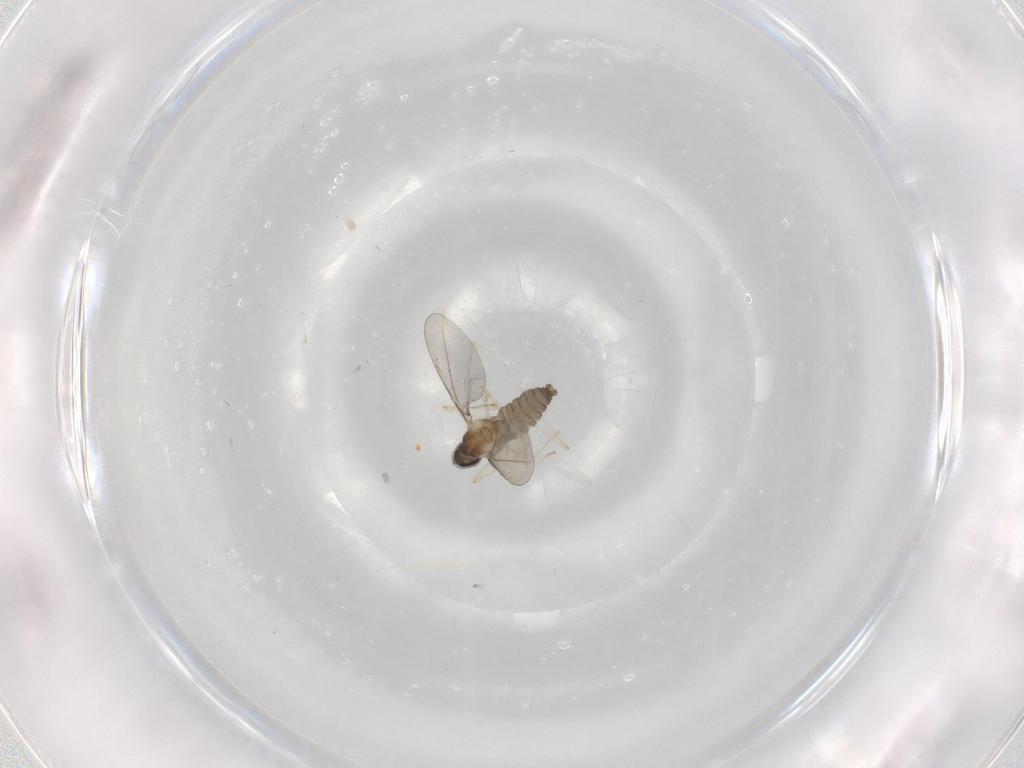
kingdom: Animalia
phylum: Arthropoda
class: Insecta
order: Diptera
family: Cecidomyiidae
